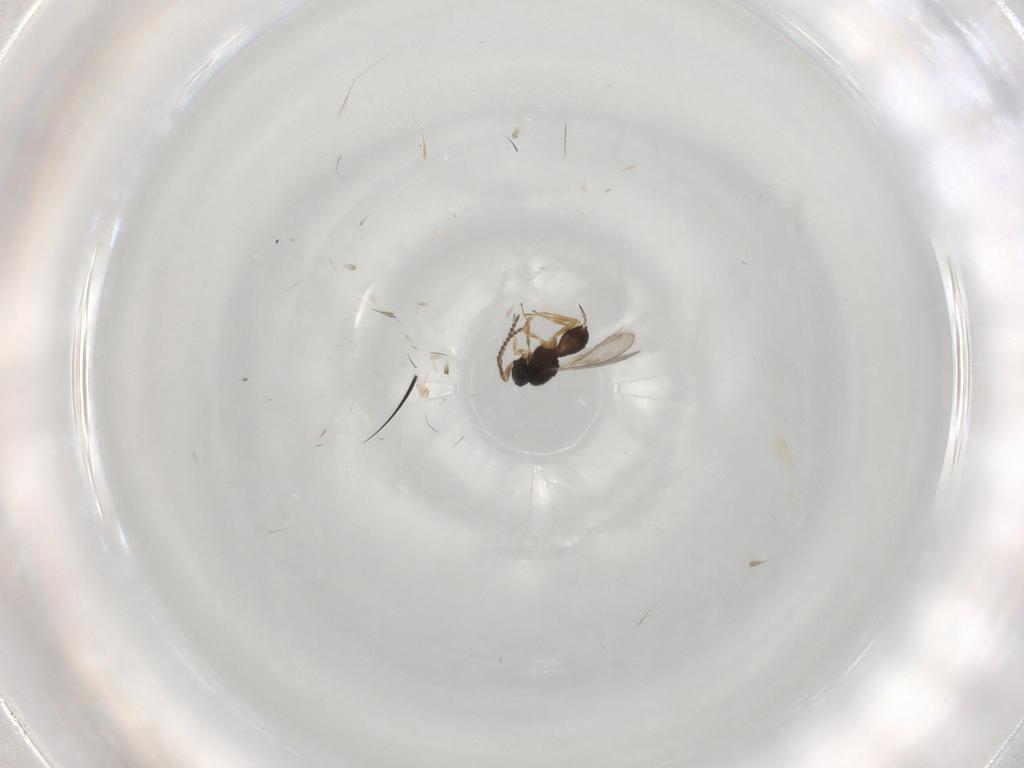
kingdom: Animalia
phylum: Arthropoda
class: Insecta
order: Hymenoptera
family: Scelionidae
